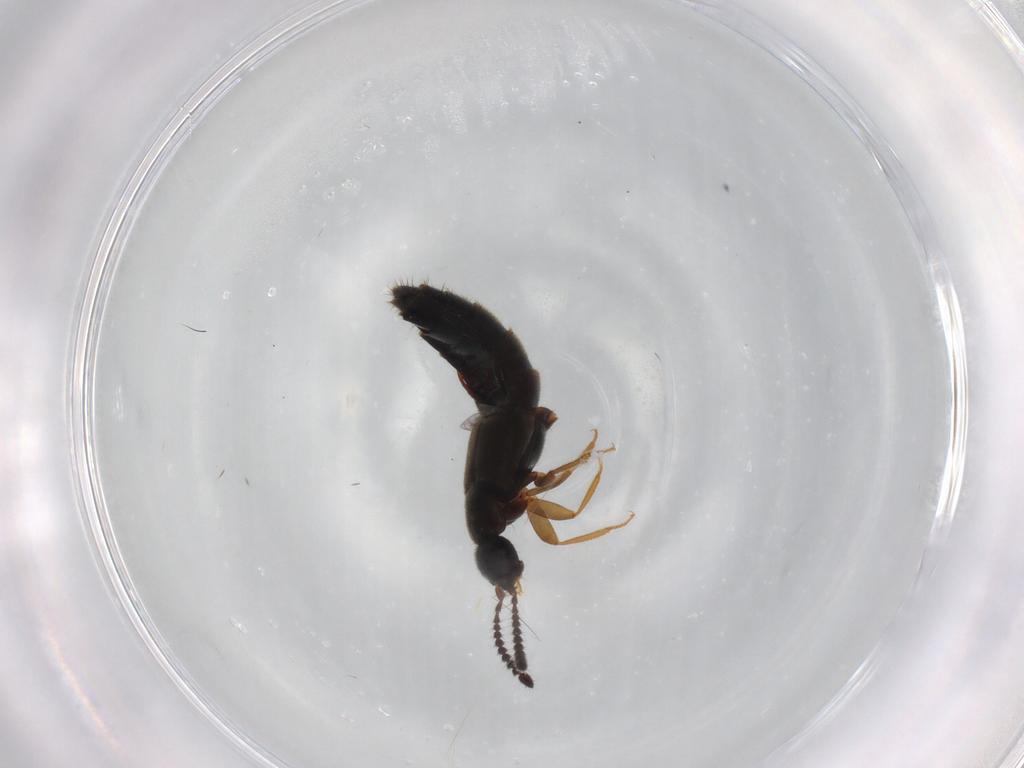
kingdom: Animalia
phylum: Arthropoda
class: Insecta
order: Coleoptera
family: Staphylinidae
